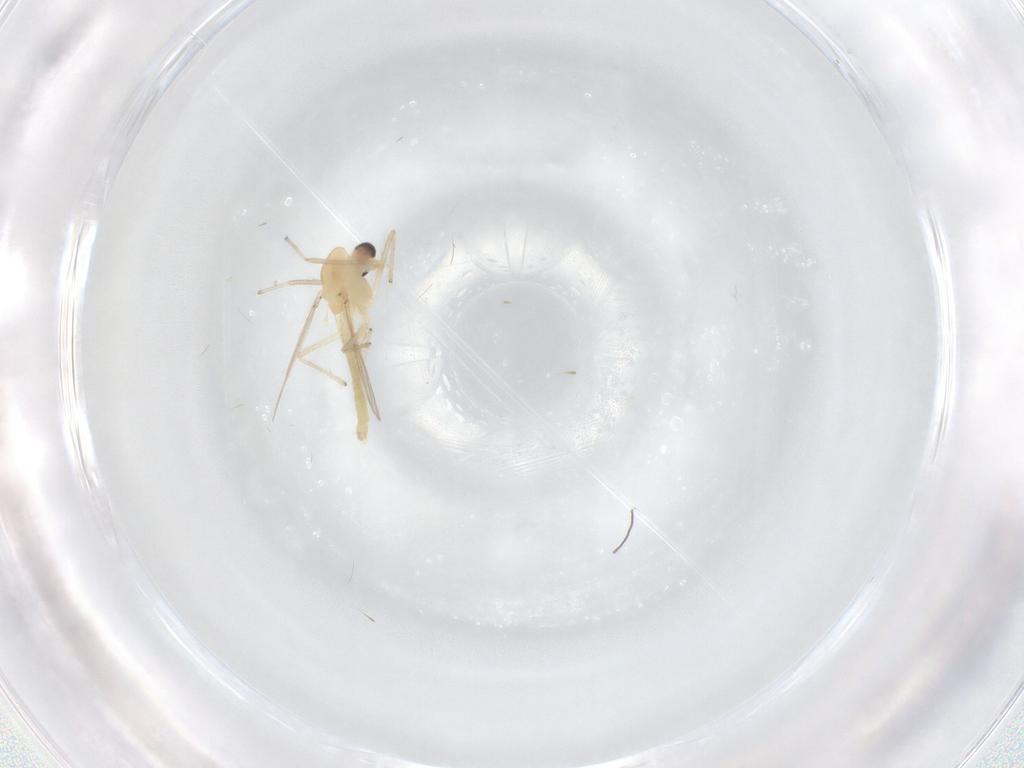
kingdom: Animalia
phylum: Arthropoda
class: Insecta
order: Diptera
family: Chironomidae
